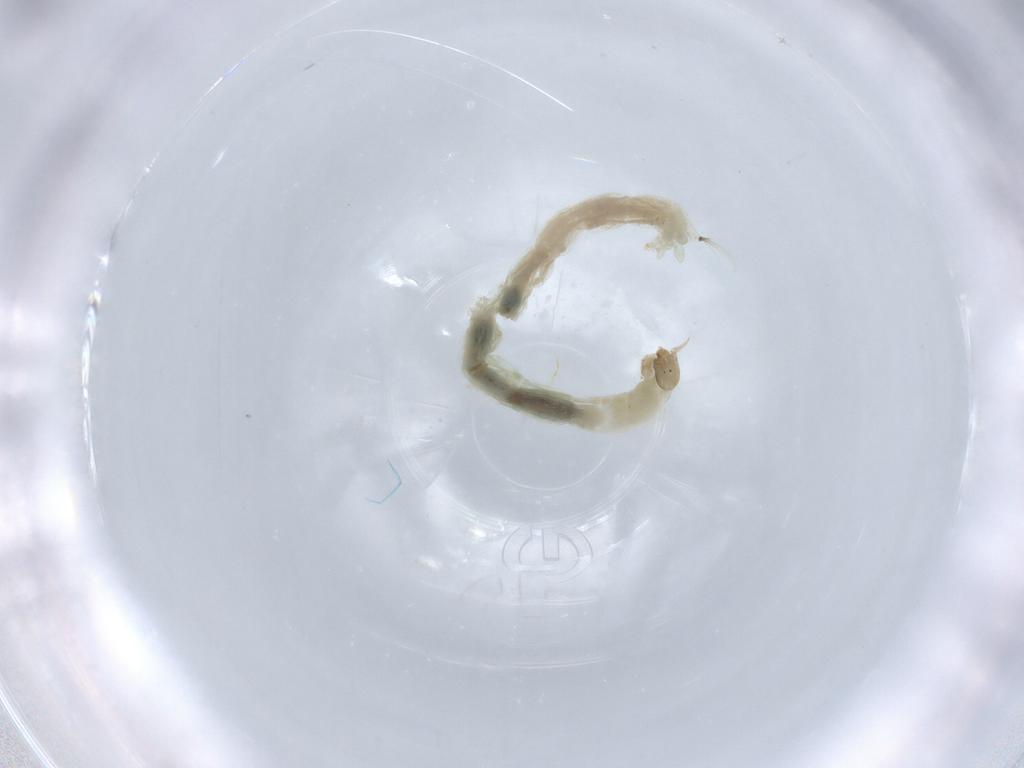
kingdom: Animalia
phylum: Arthropoda
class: Insecta
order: Diptera
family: Chironomidae
